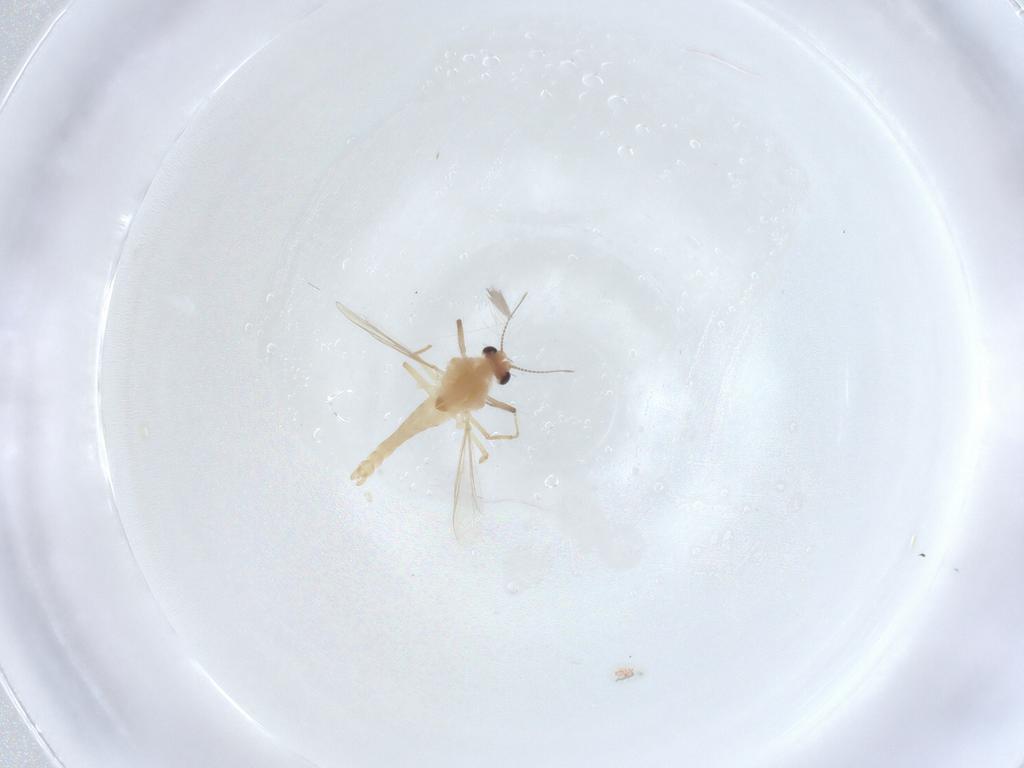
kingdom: Animalia
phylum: Arthropoda
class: Insecta
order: Diptera
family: Chironomidae
